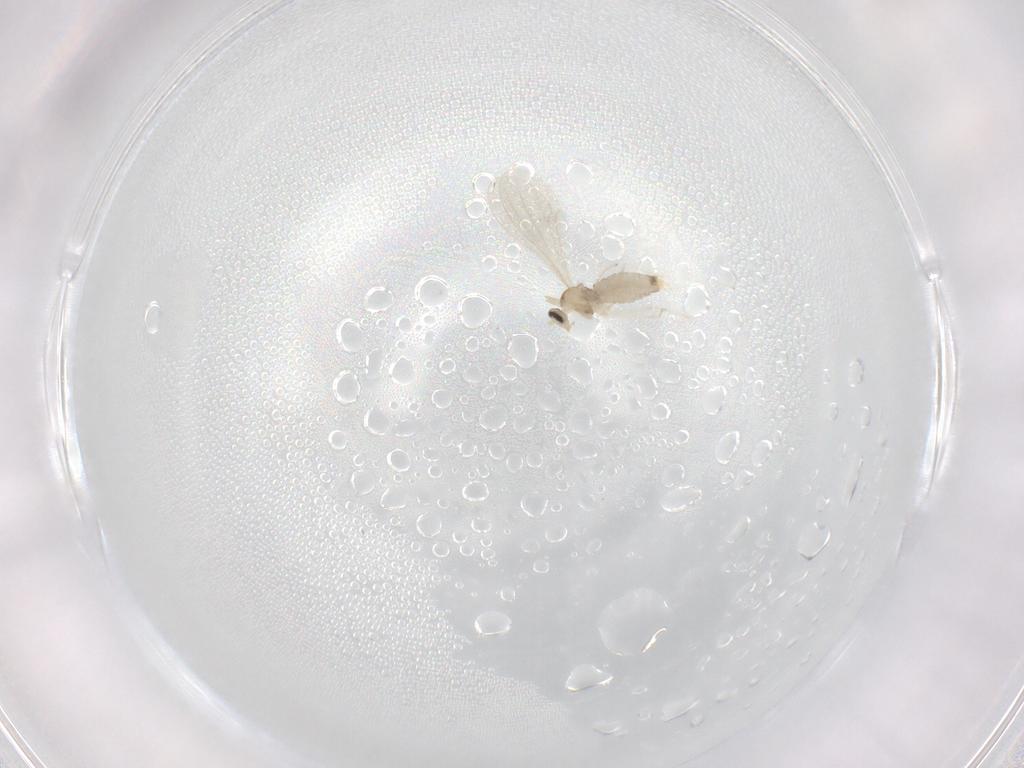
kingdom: Animalia
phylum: Arthropoda
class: Insecta
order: Diptera
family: Cecidomyiidae
